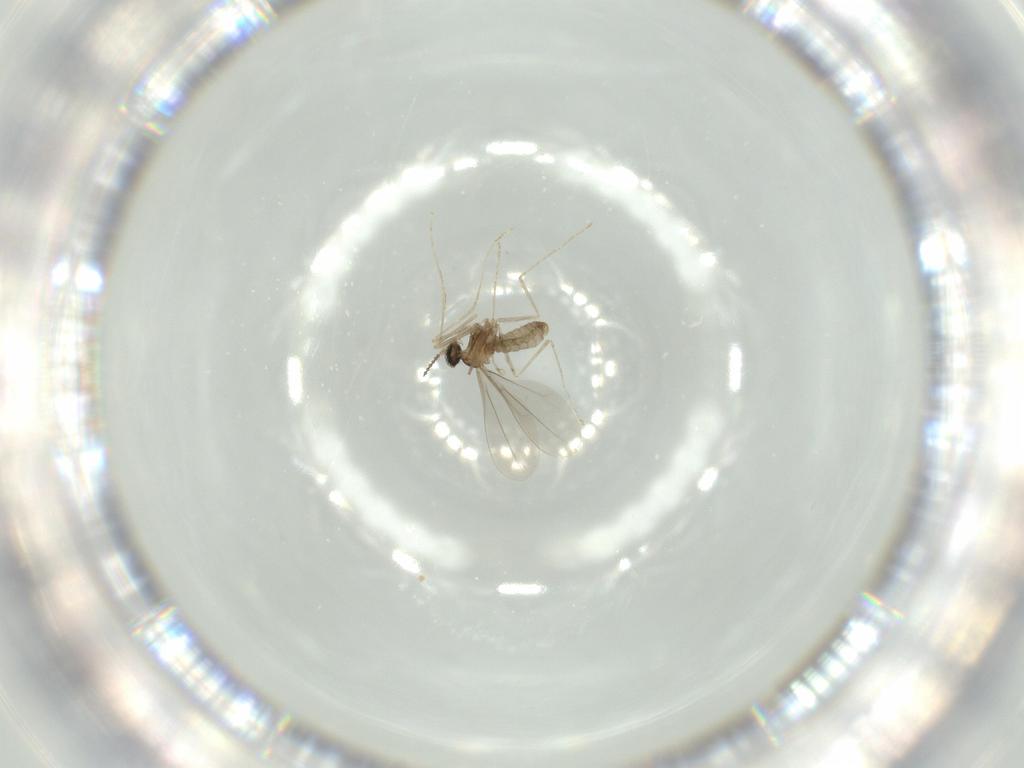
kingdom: Animalia
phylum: Arthropoda
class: Insecta
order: Diptera
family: Cecidomyiidae
